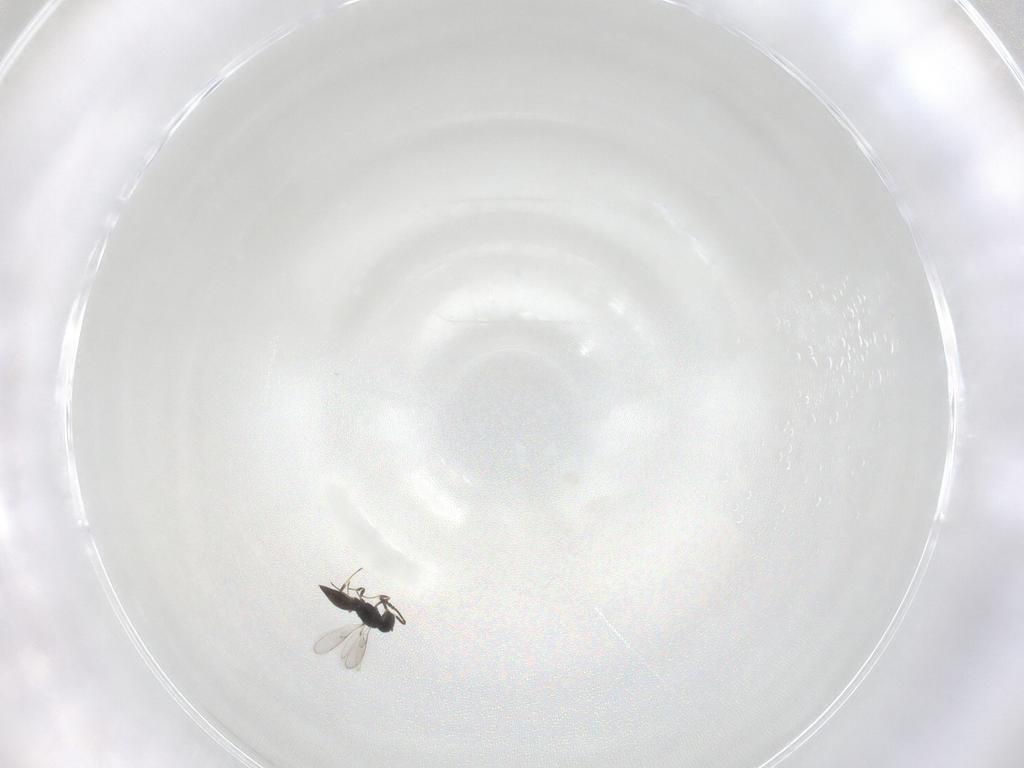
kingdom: Animalia
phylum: Arthropoda
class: Insecta
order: Hymenoptera
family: Scelionidae
